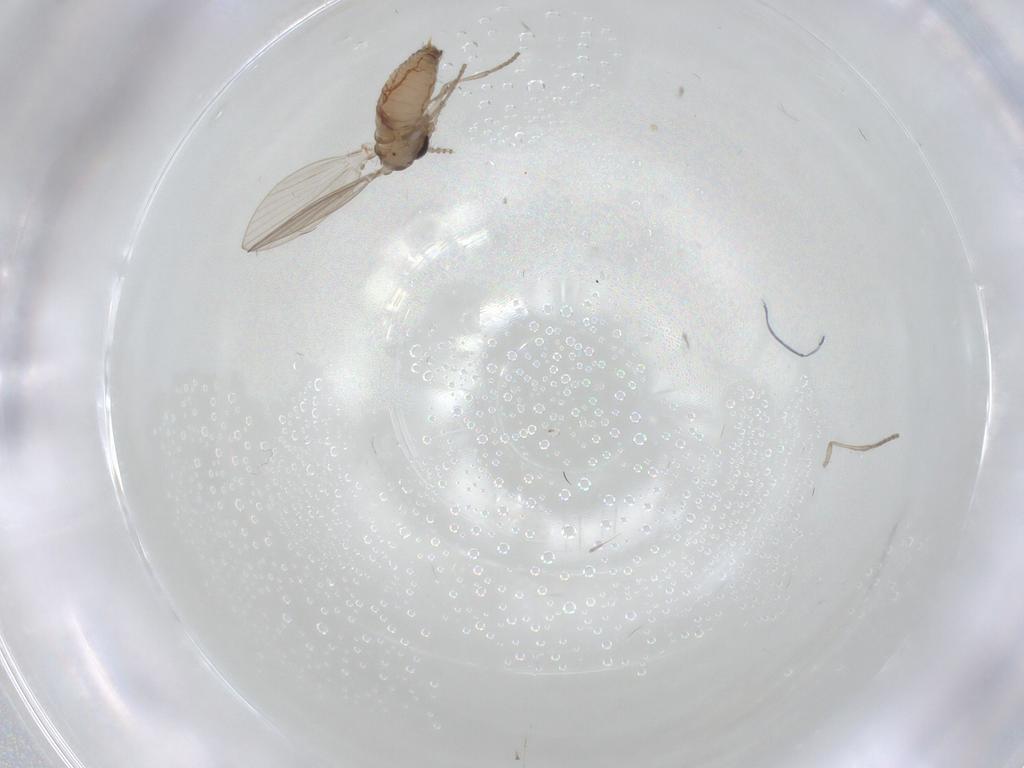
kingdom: Animalia
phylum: Arthropoda
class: Insecta
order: Diptera
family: Psychodidae
